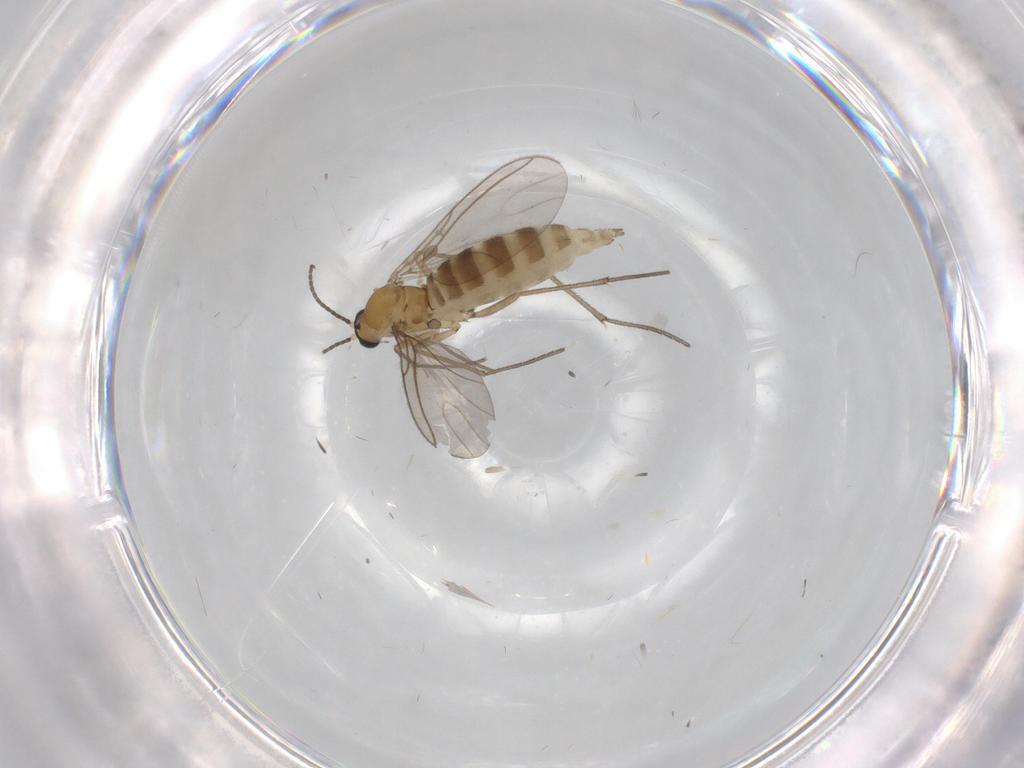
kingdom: Animalia
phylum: Arthropoda
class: Insecta
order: Diptera
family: Sciaridae
